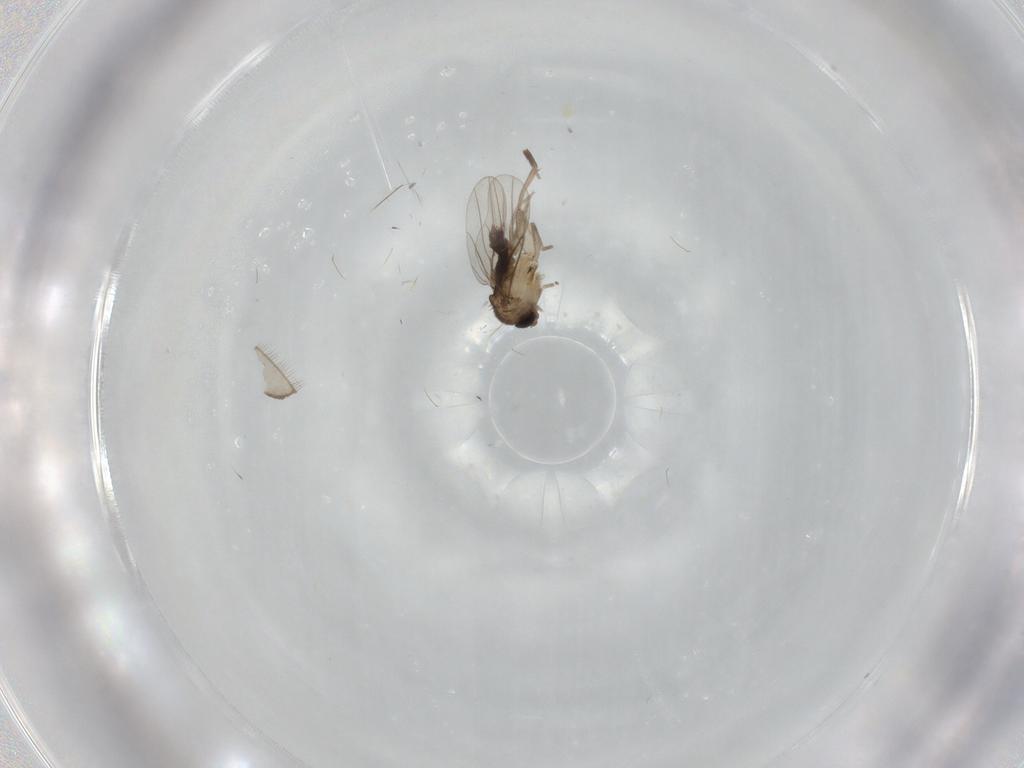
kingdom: Animalia
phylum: Arthropoda
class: Insecta
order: Diptera
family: Phoridae
